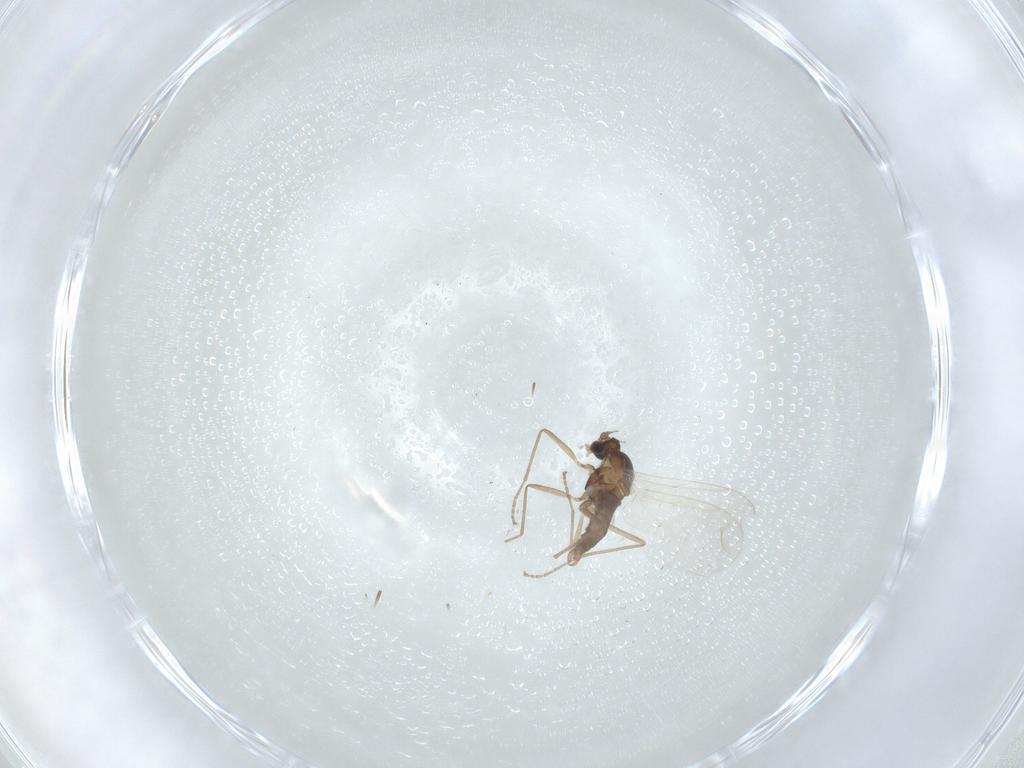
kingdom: Animalia
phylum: Arthropoda
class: Insecta
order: Diptera
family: Cecidomyiidae
